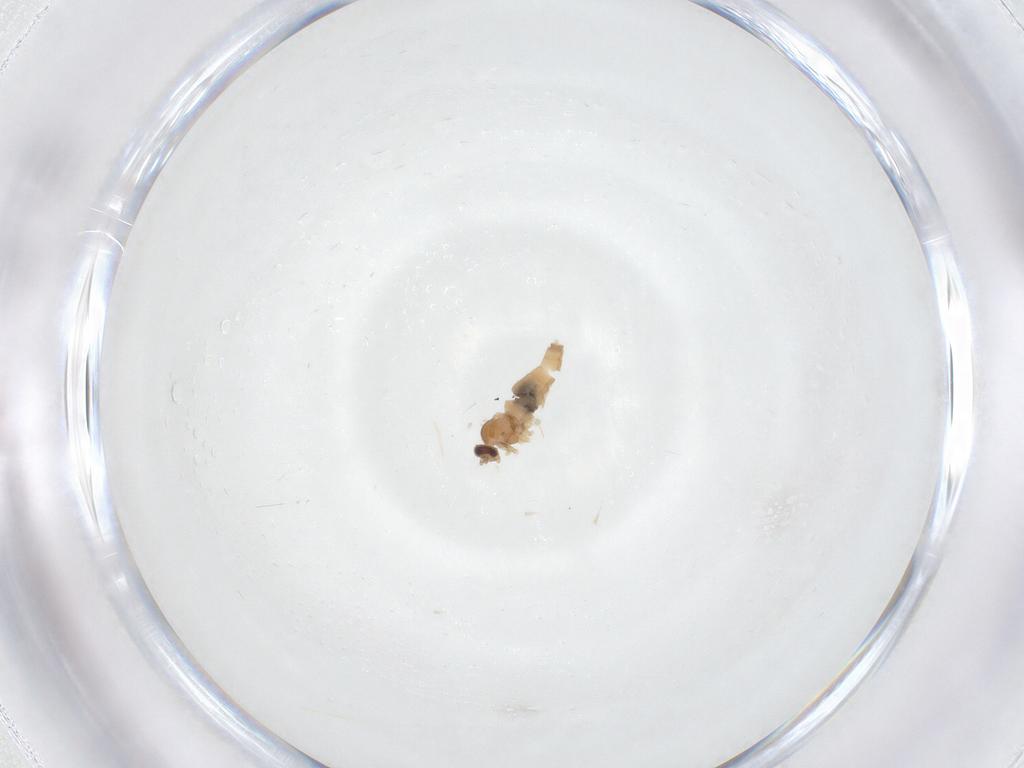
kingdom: Animalia
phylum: Arthropoda
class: Insecta
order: Diptera
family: Cecidomyiidae
